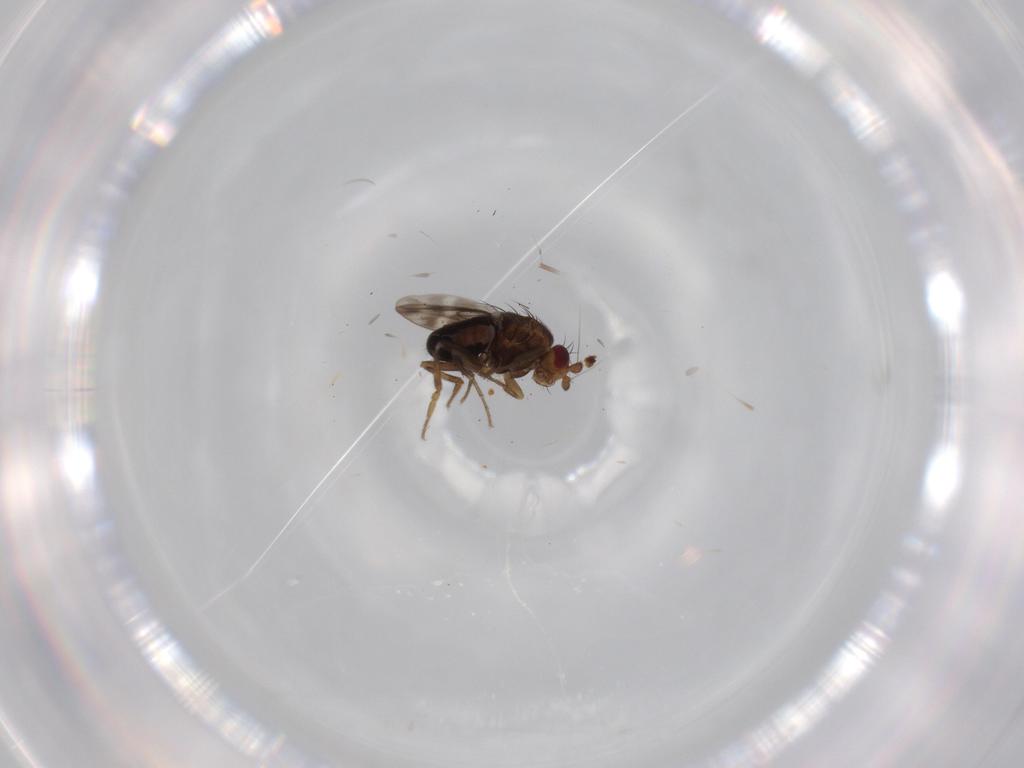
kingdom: Animalia
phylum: Arthropoda
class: Insecta
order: Diptera
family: Sphaeroceridae
